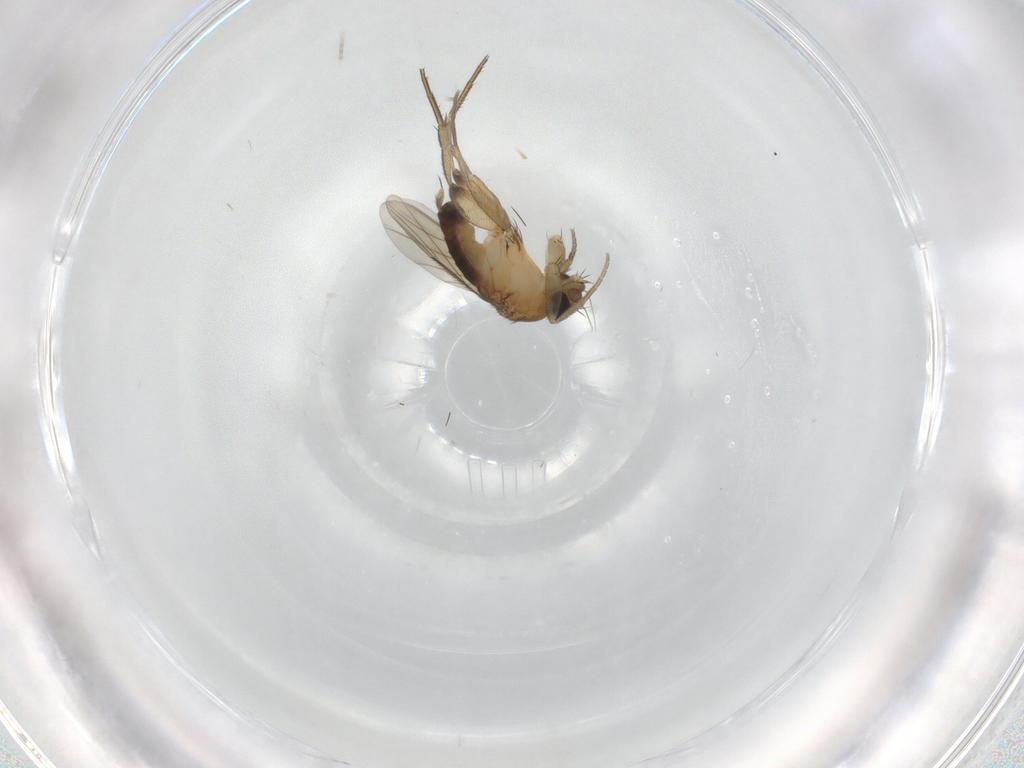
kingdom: Animalia
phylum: Arthropoda
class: Insecta
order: Diptera
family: Phoridae
